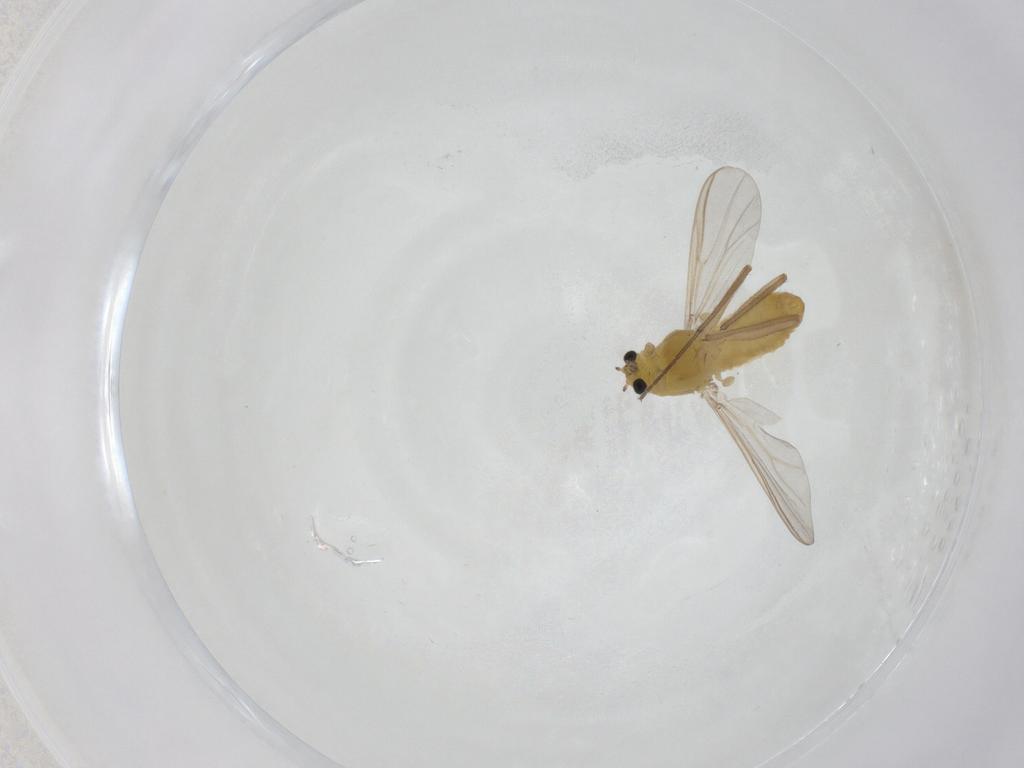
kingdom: Animalia
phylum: Arthropoda
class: Insecta
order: Diptera
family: Chironomidae
